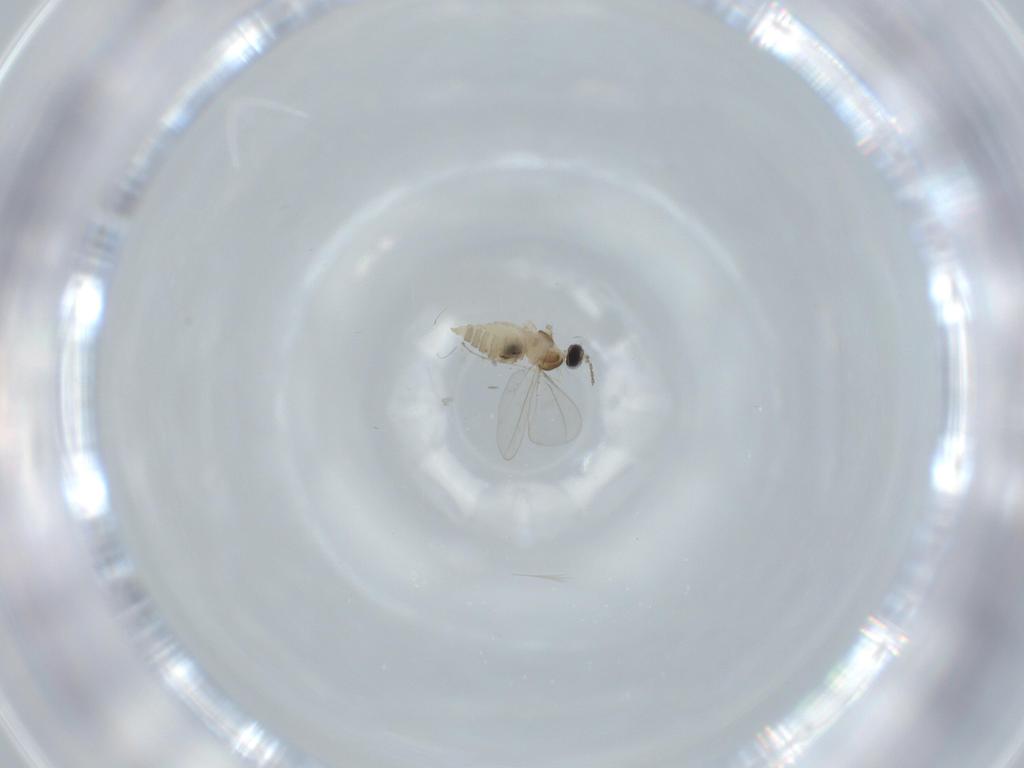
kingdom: Animalia
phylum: Arthropoda
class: Insecta
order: Diptera
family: Cecidomyiidae
